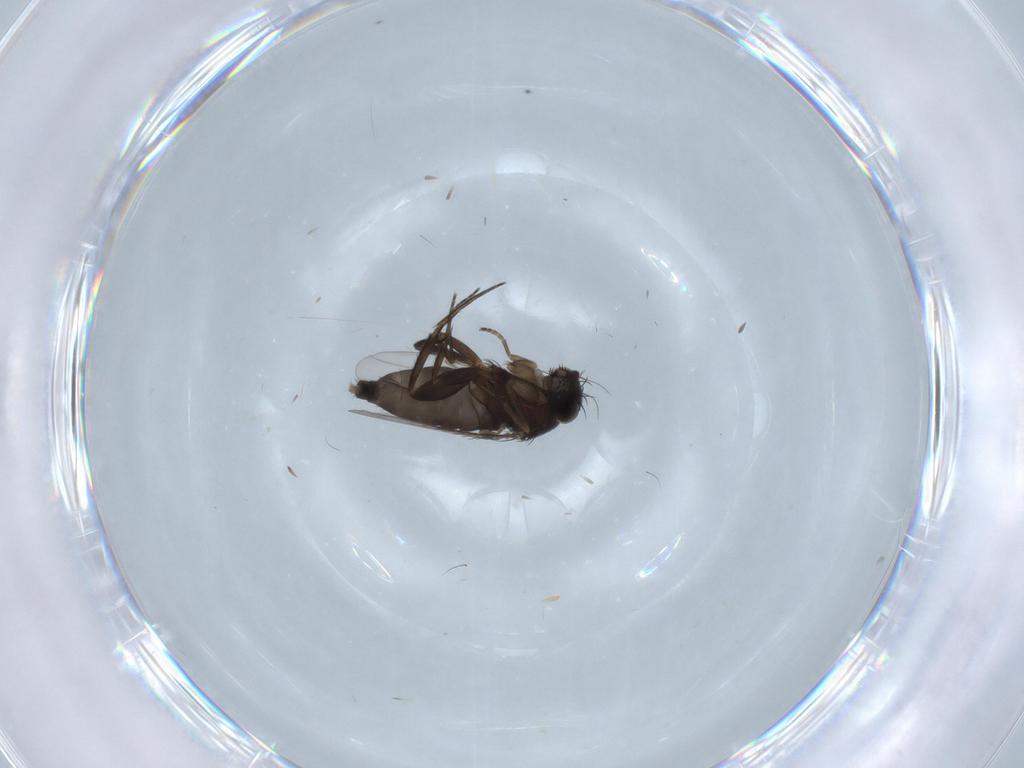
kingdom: Animalia
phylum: Arthropoda
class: Insecta
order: Diptera
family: Phoridae
